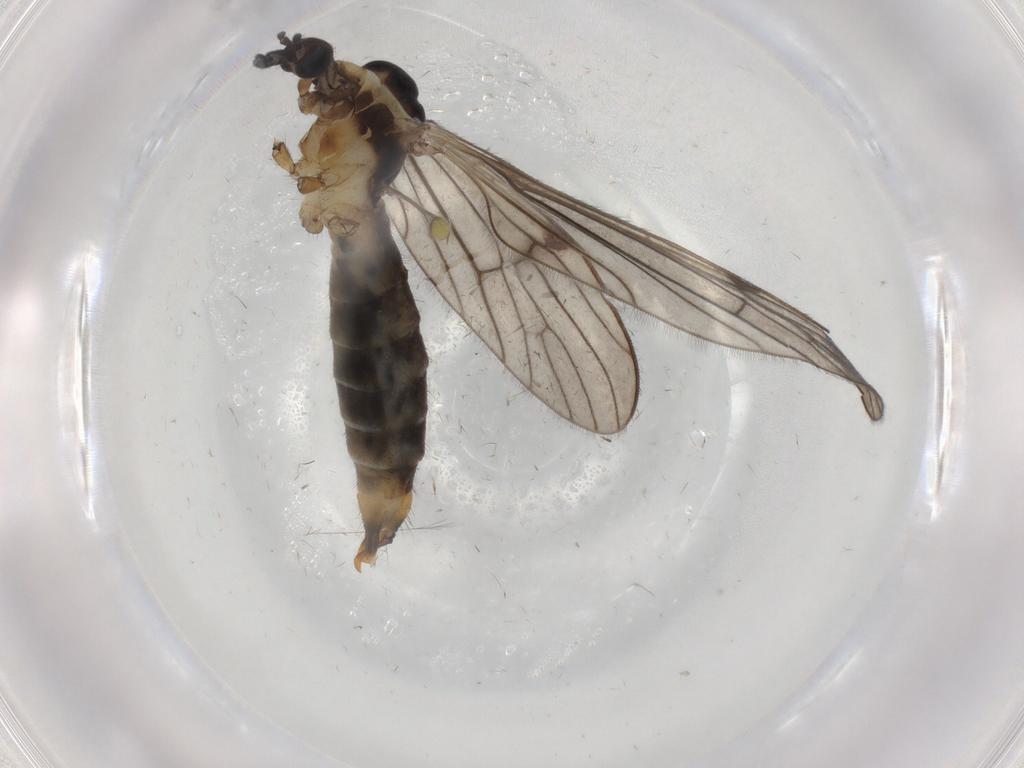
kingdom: Animalia
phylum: Arthropoda
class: Insecta
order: Diptera
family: Limoniidae
